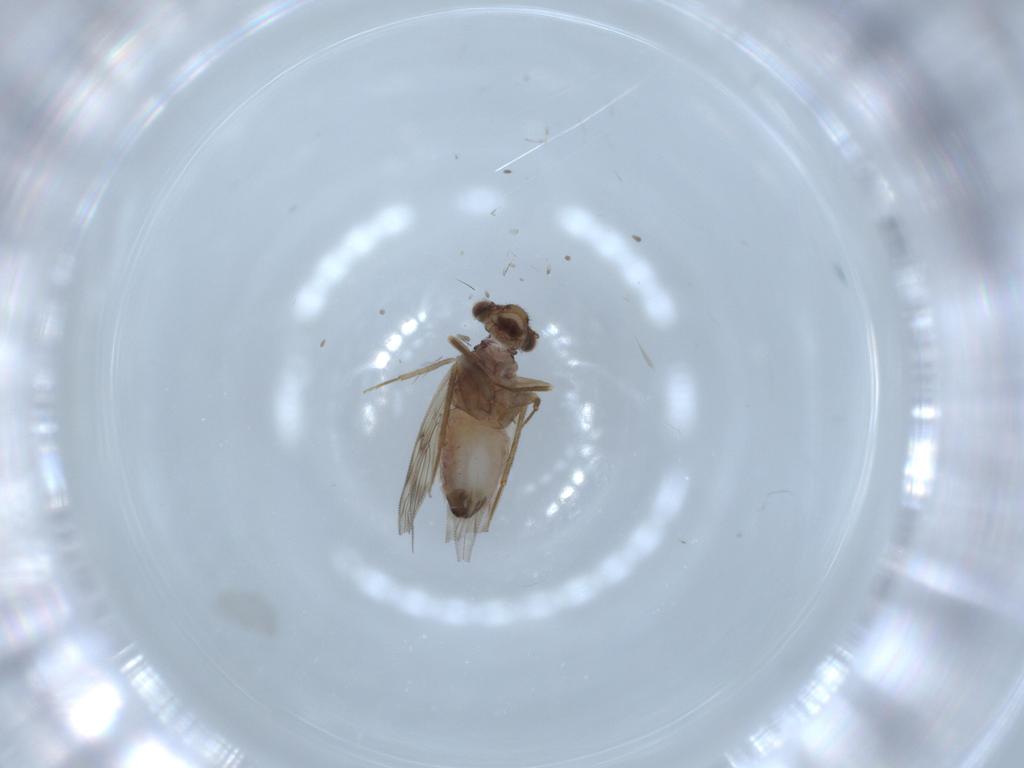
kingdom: Animalia
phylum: Arthropoda
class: Insecta
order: Psocodea
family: Lepidopsocidae
